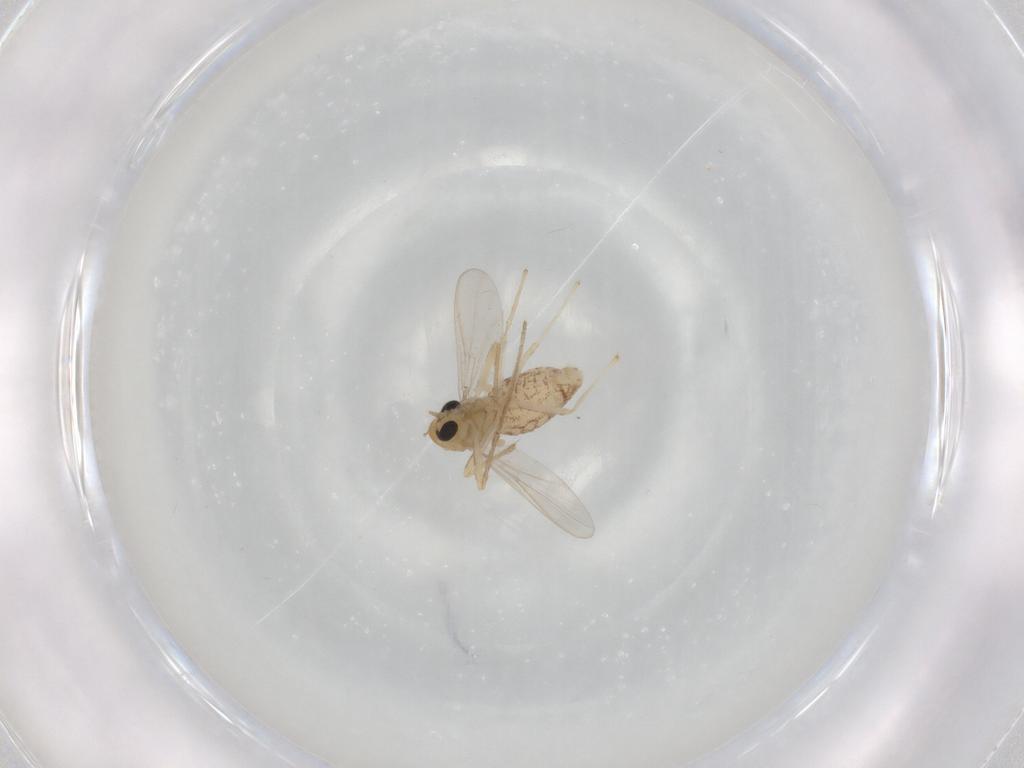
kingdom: Animalia
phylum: Arthropoda
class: Insecta
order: Diptera
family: Chironomidae
